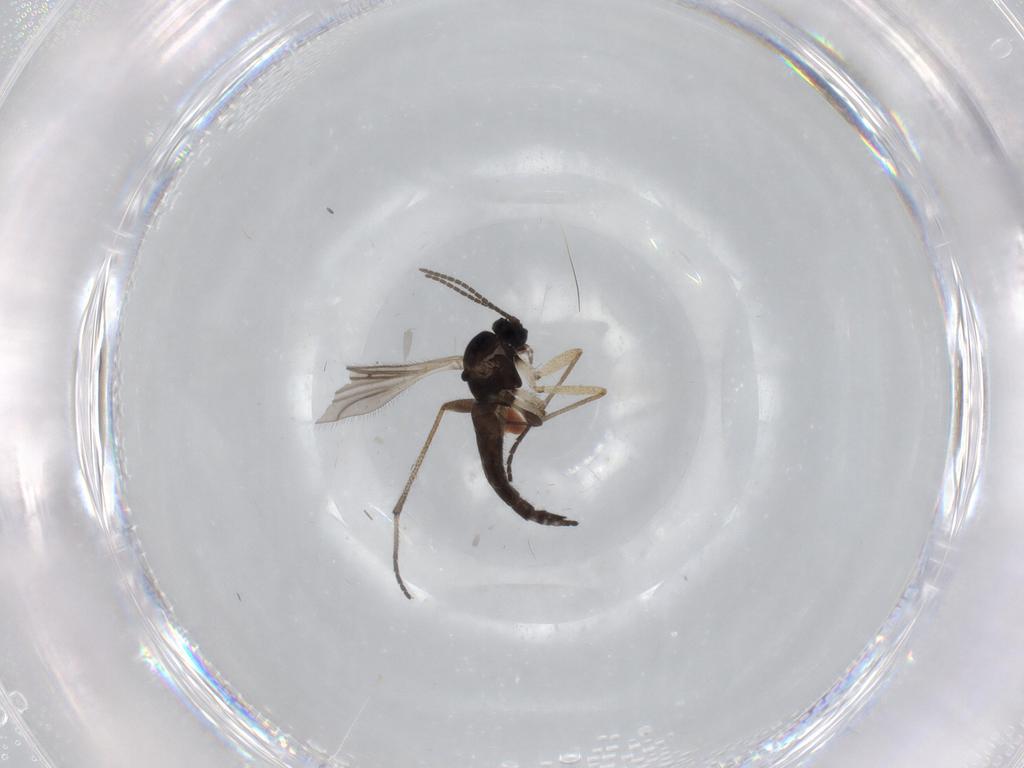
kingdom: Animalia
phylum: Arthropoda
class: Insecta
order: Diptera
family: Sciaridae
